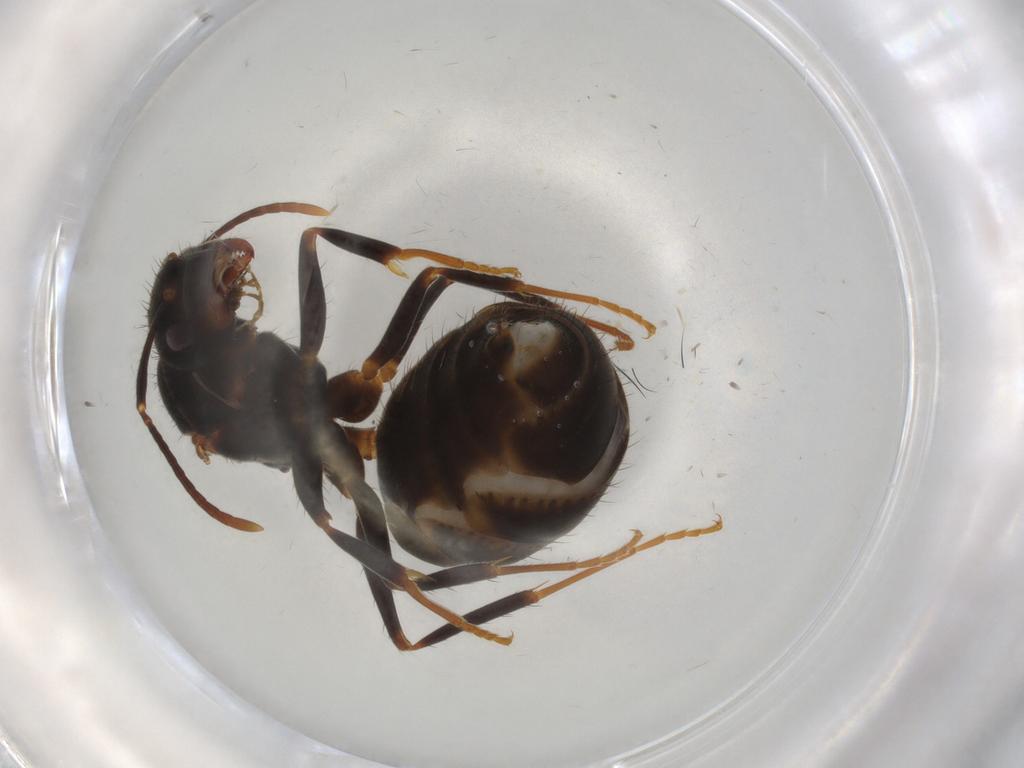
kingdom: Animalia
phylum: Arthropoda
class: Insecta
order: Hymenoptera
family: Formicidae
